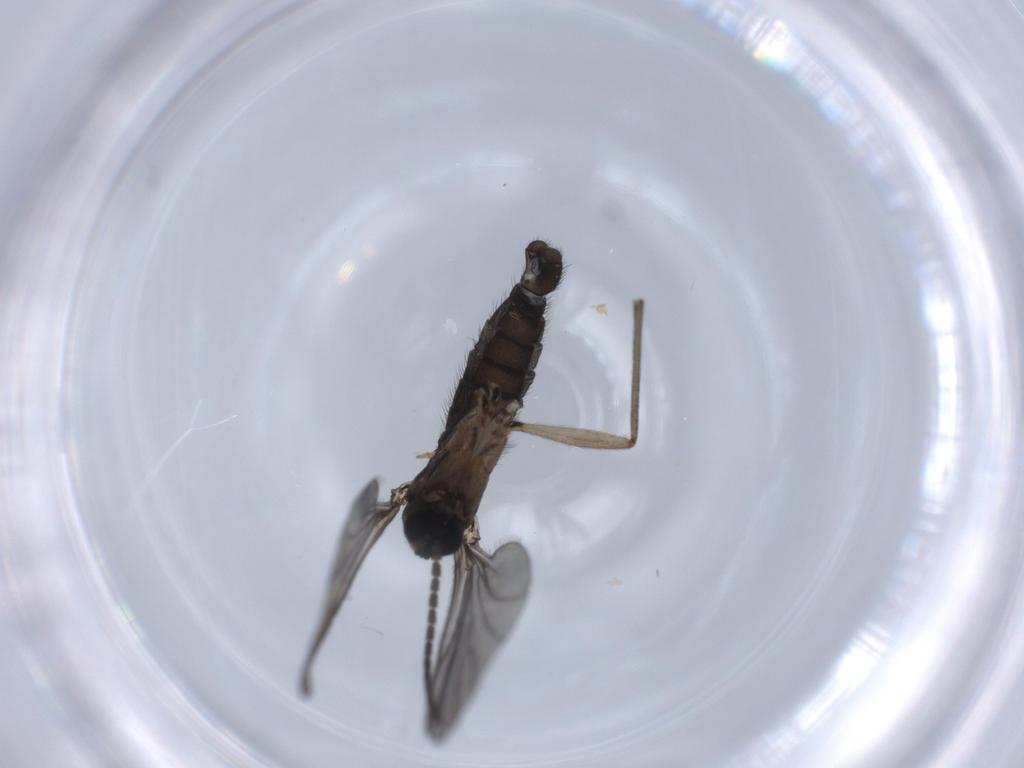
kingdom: Animalia
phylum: Arthropoda
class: Insecta
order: Diptera
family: Sciaridae
